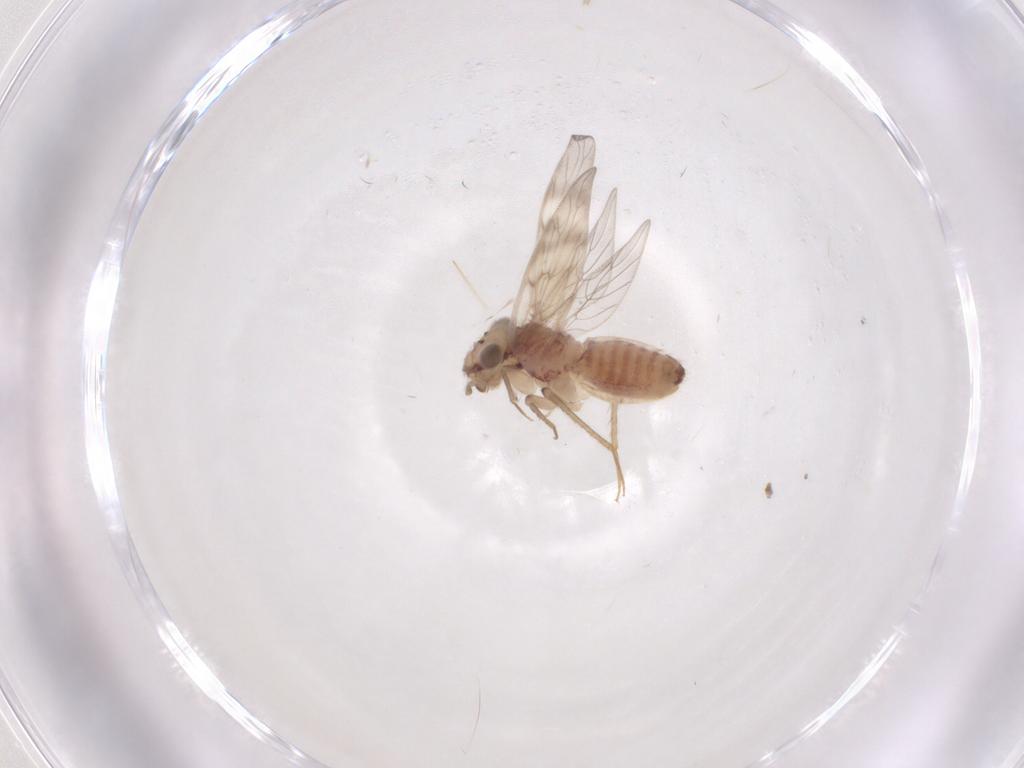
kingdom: Animalia
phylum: Arthropoda
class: Insecta
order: Psocodea
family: Lepidopsocidae
